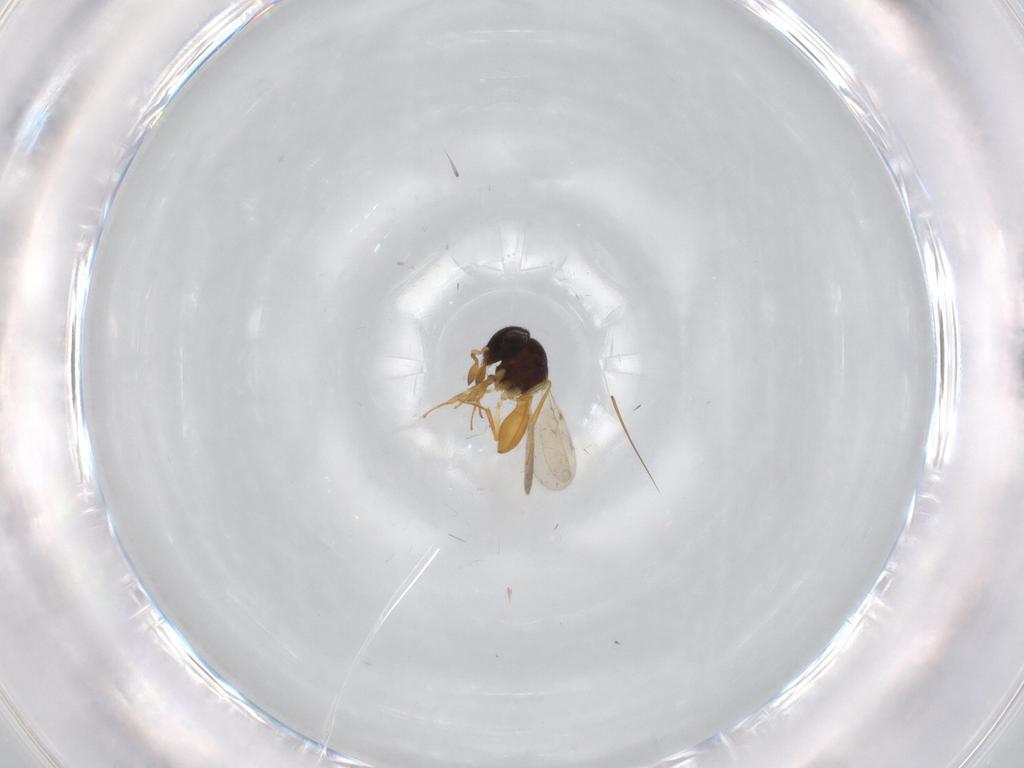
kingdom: Animalia
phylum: Arthropoda
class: Insecta
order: Hymenoptera
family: Scelionidae
